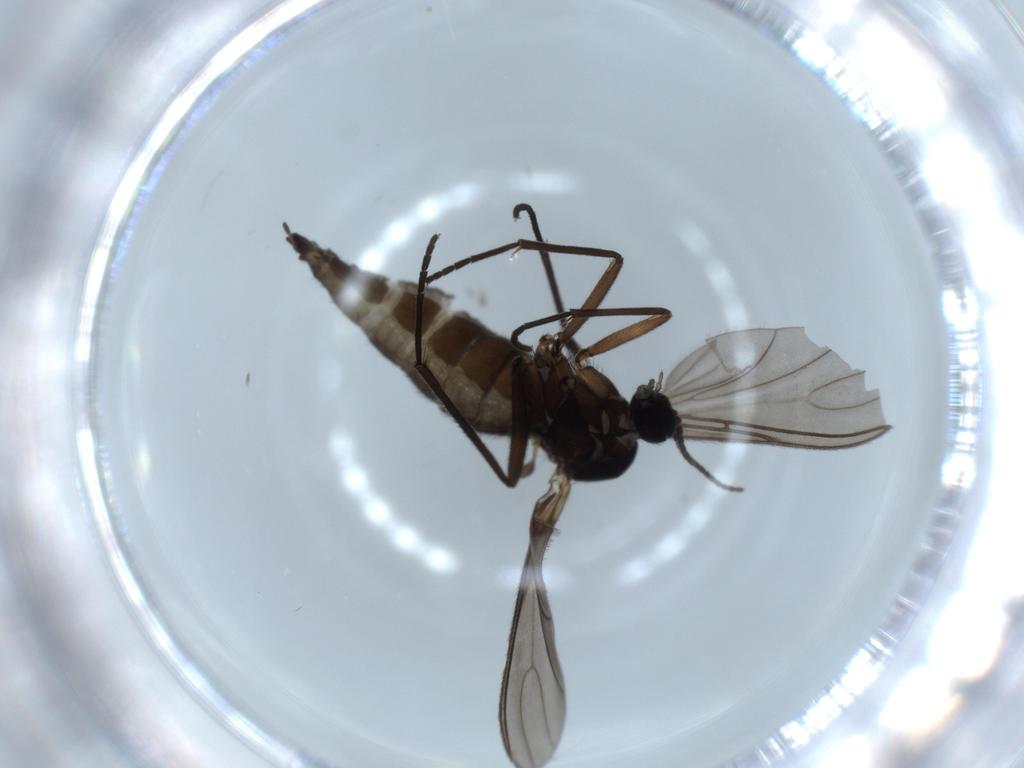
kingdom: Animalia
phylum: Arthropoda
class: Insecta
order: Diptera
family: Sciaridae
